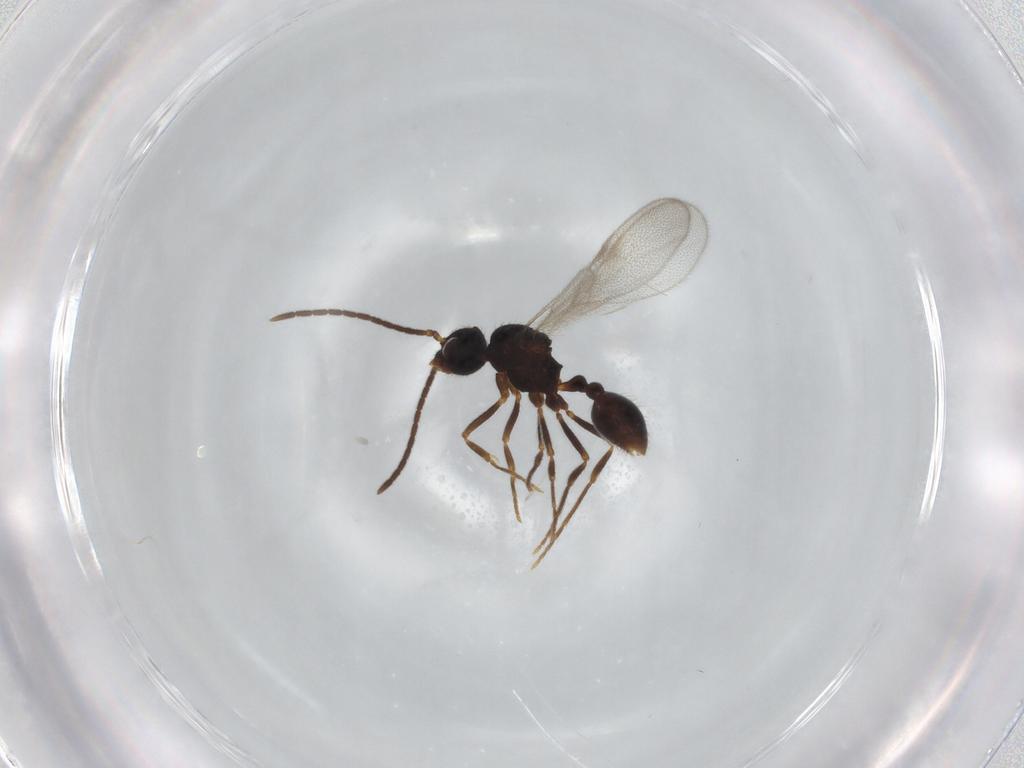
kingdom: Animalia
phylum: Arthropoda
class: Insecta
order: Hymenoptera
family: Formicidae
